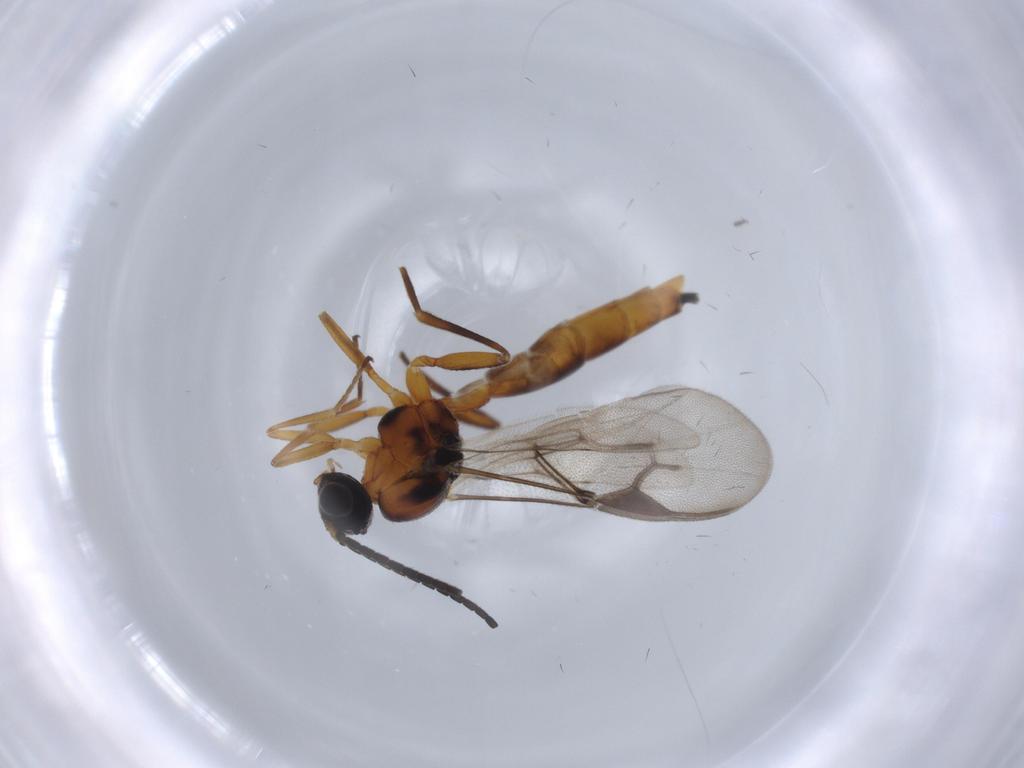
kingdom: Animalia
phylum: Arthropoda
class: Insecta
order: Hymenoptera
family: Braconidae
